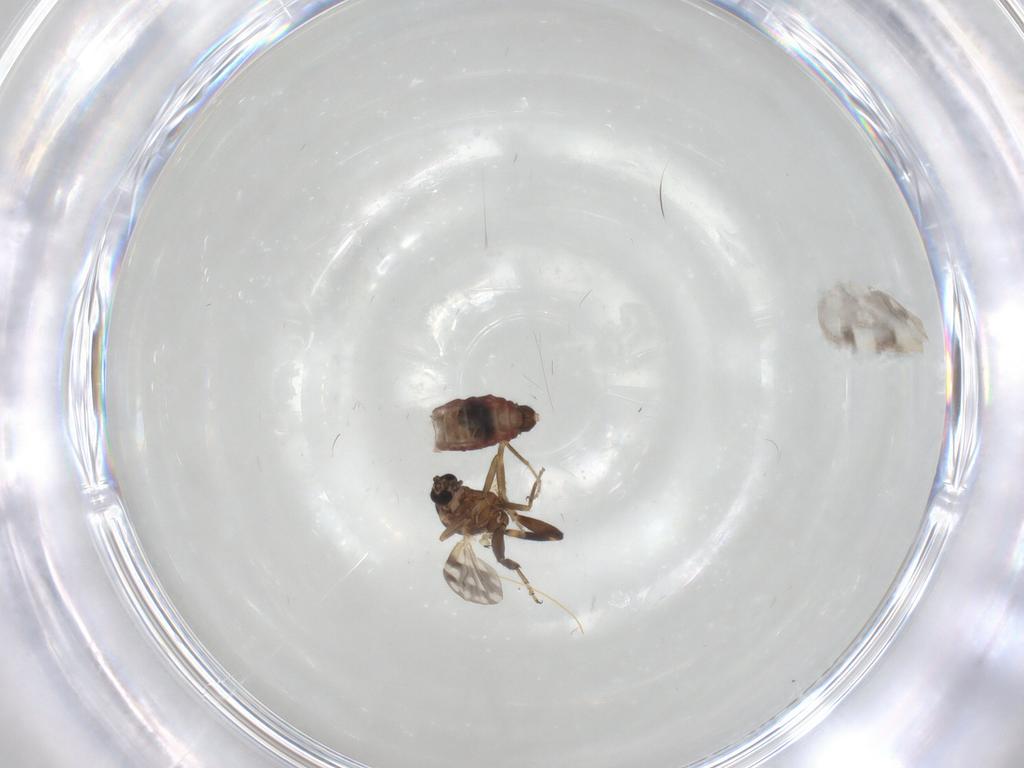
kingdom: Animalia
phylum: Arthropoda
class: Insecta
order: Diptera
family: Ceratopogonidae
